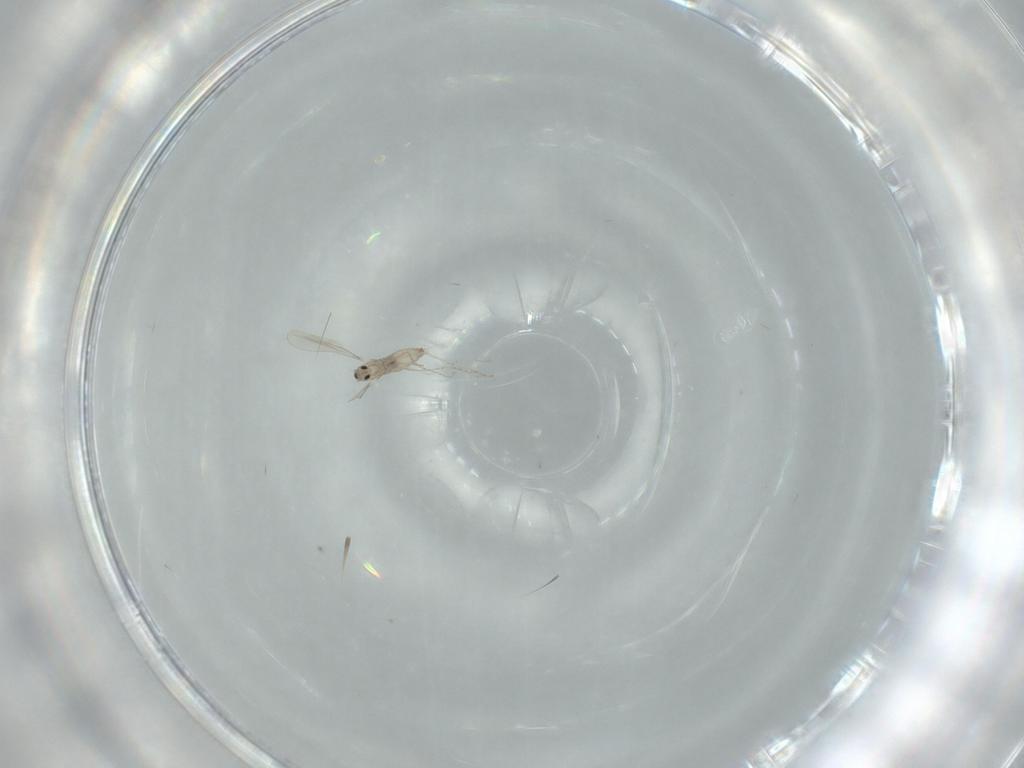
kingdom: Animalia
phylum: Arthropoda
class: Insecta
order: Diptera
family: Cecidomyiidae
